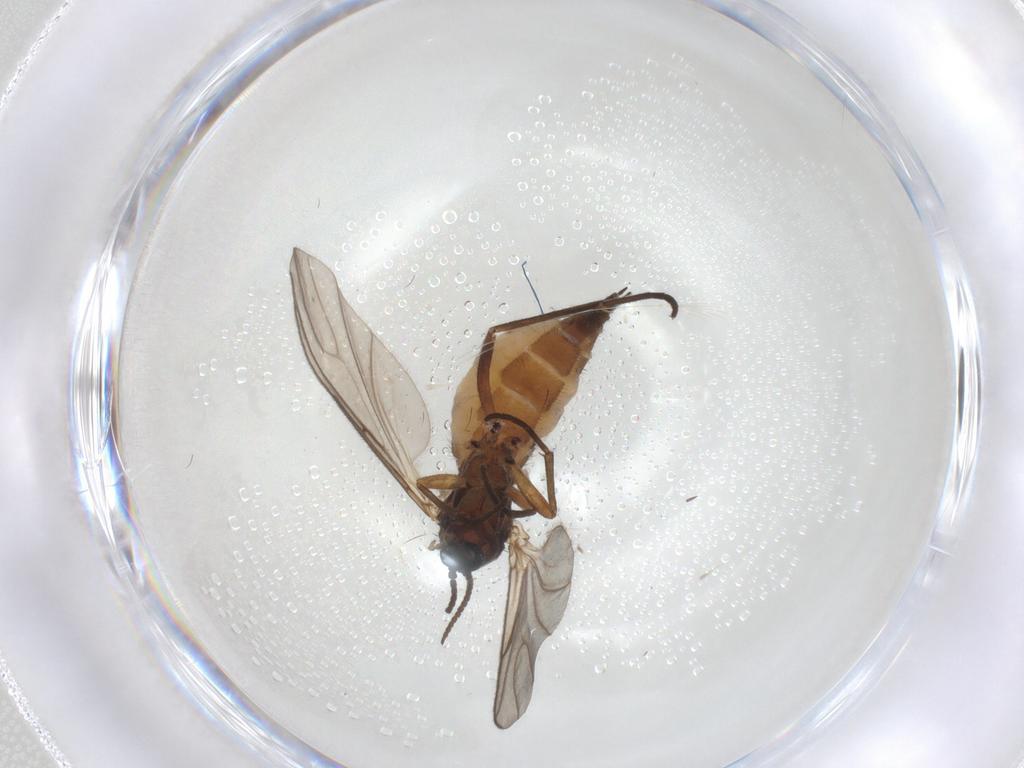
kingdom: Animalia
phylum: Arthropoda
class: Insecta
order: Diptera
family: Sciaridae
